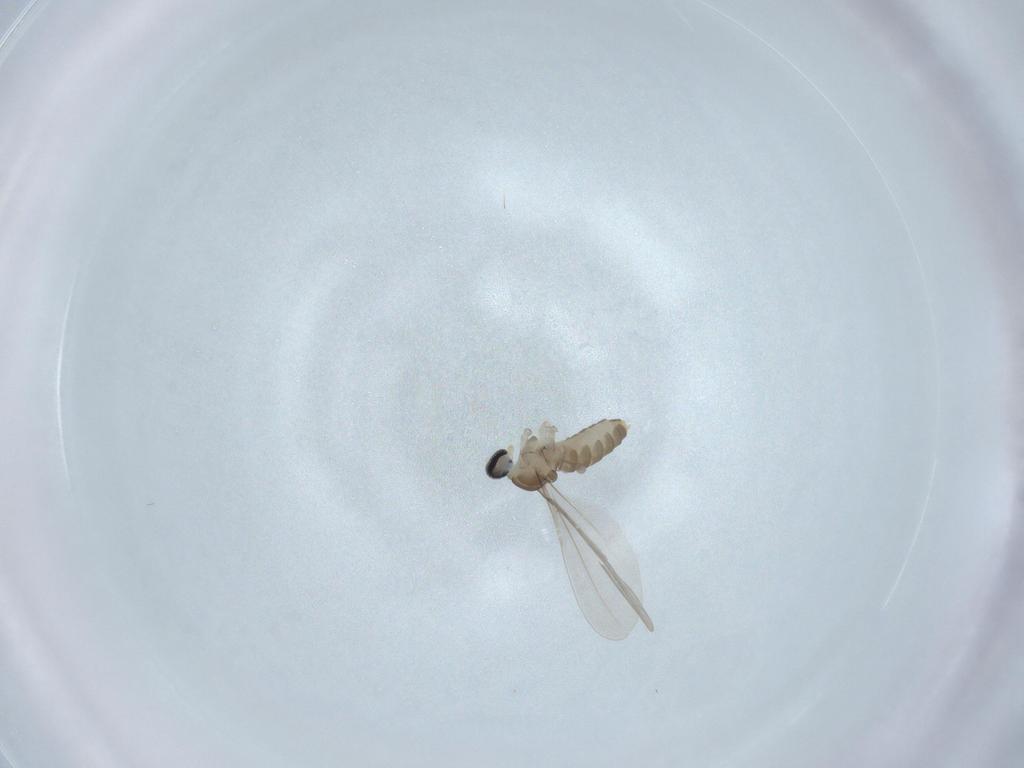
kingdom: Animalia
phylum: Arthropoda
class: Insecta
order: Diptera
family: Cecidomyiidae
